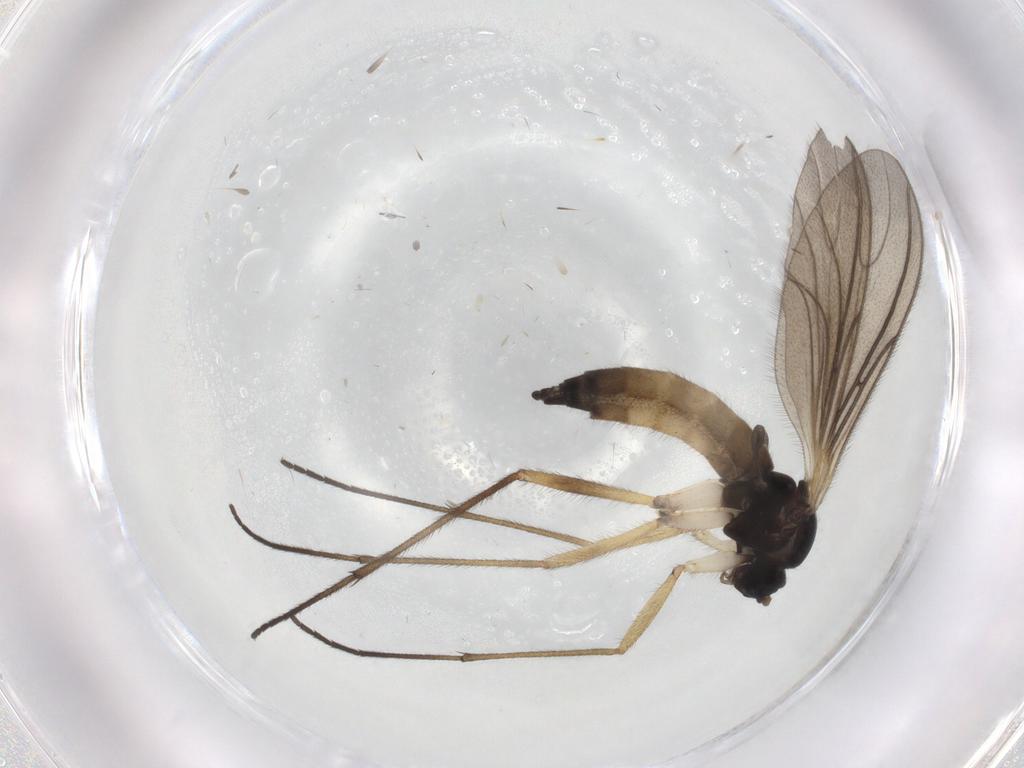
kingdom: Animalia
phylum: Arthropoda
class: Insecta
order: Diptera
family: Sciaridae
